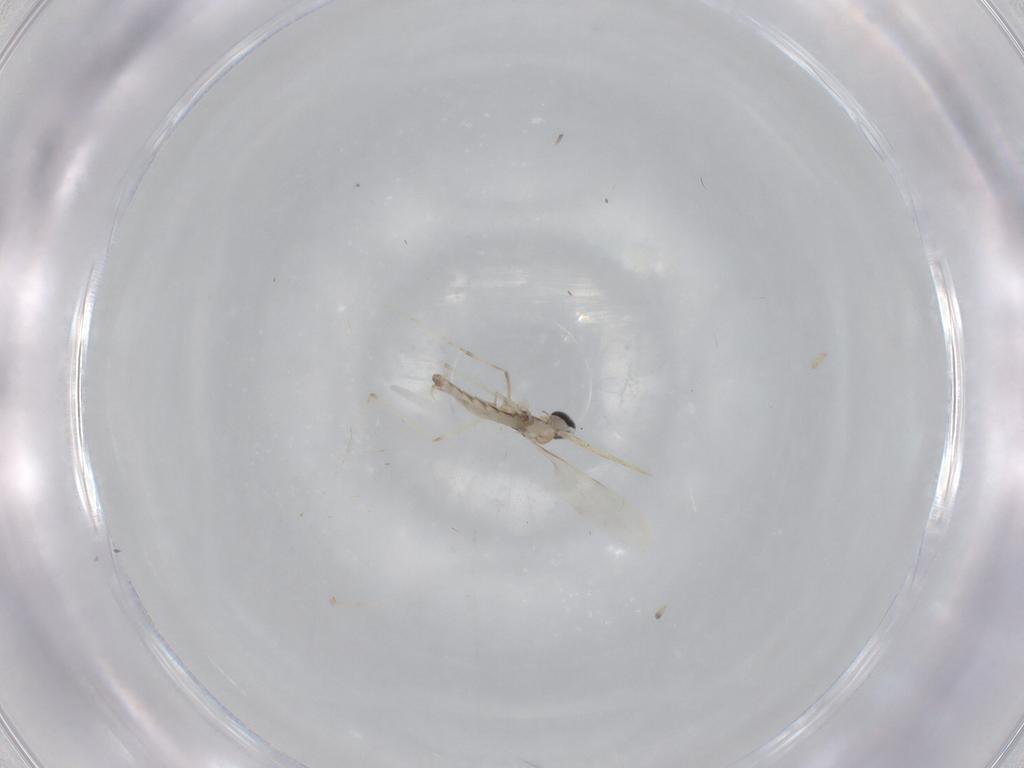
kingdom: Animalia
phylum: Arthropoda
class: Insecta
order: Diptera
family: Cecidomyiidae
